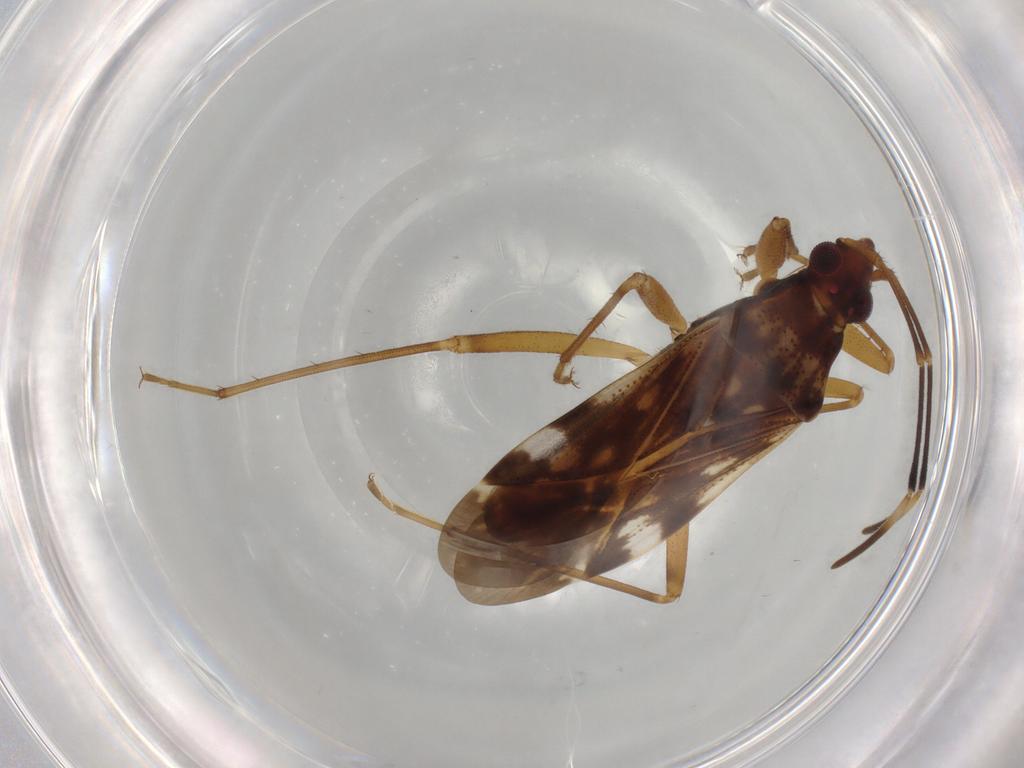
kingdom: Animalia
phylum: Arthropoda
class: Insecta
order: Hemiptera
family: Rhyparochromidae
